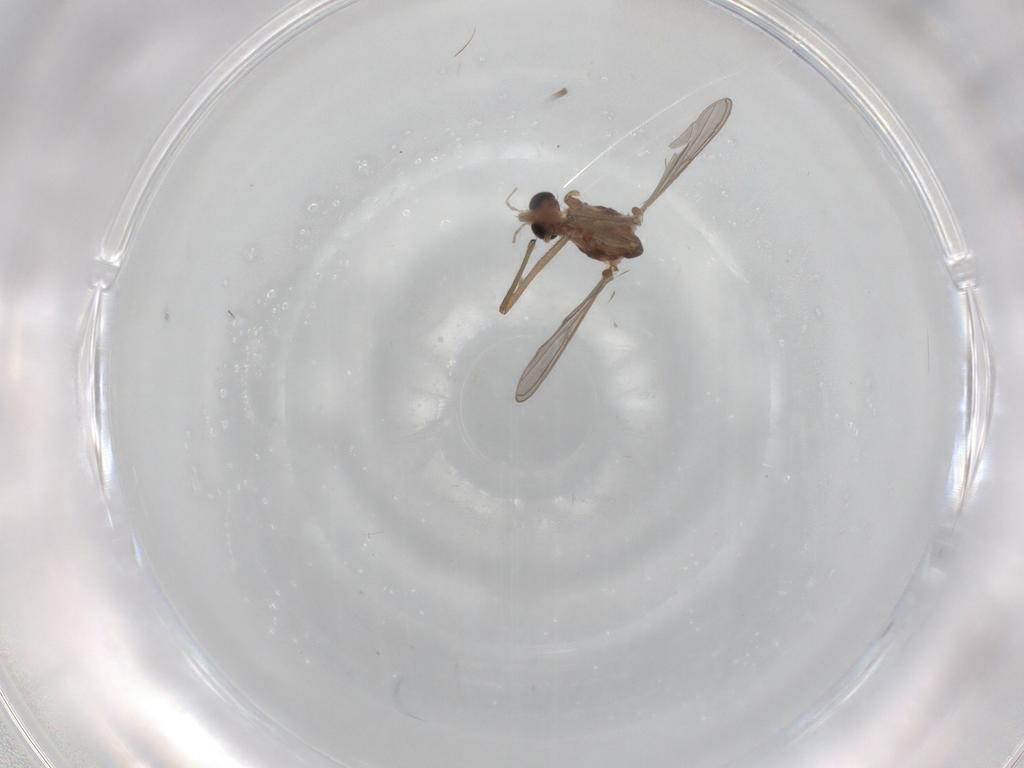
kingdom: Animalia
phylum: Arthropoda
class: Insecta
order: Diptera
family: Chironomidae
